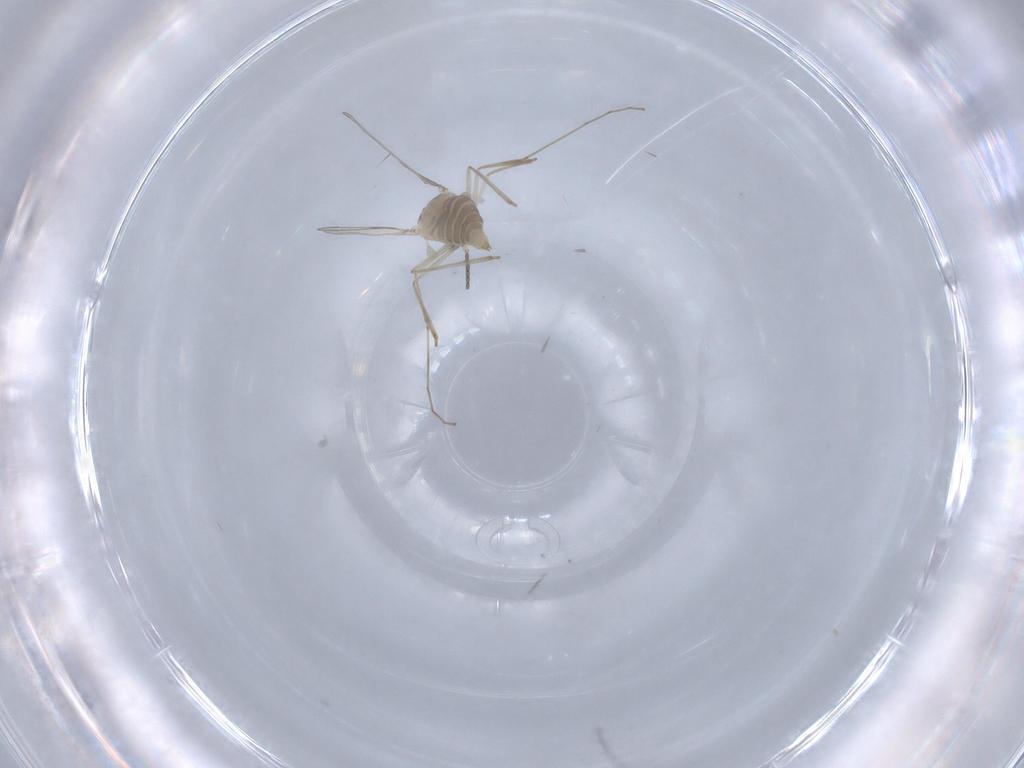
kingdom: Animalia
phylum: Arthropoda
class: Insecta
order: Diptera
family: Cecidomyiidae
